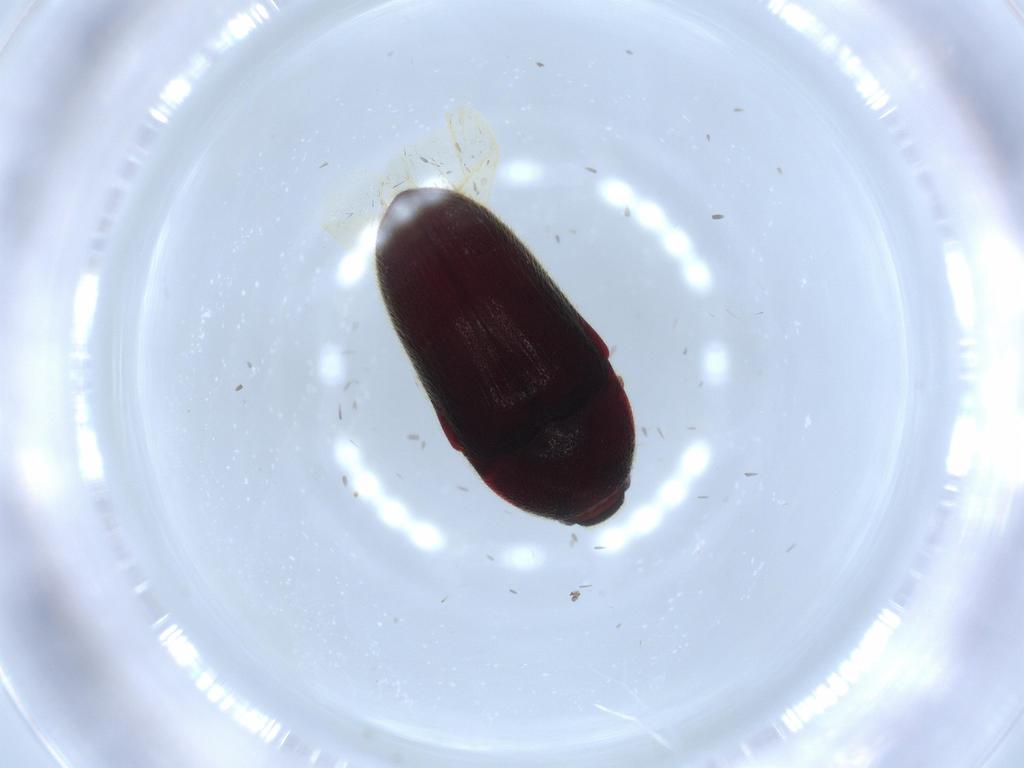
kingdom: Animalia
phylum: Arthropoda
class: Insecta
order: Coleoptera
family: Throscidae
